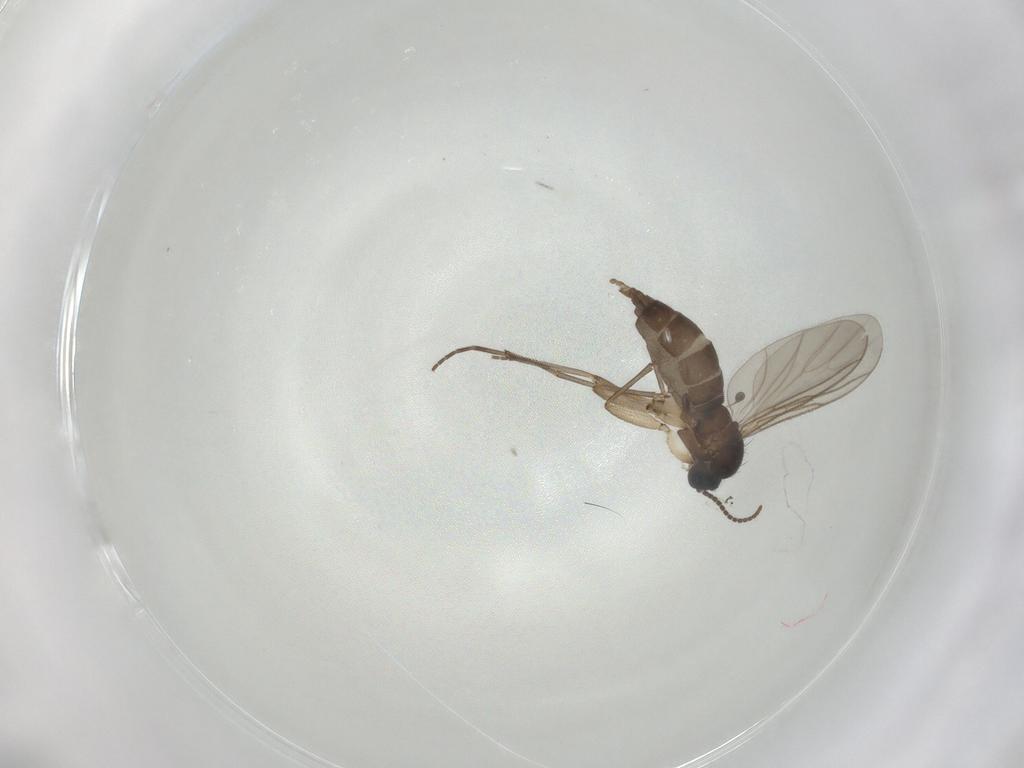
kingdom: Animalia
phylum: Arthropoda
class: Insecta
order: Diptera
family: Sciaridae
